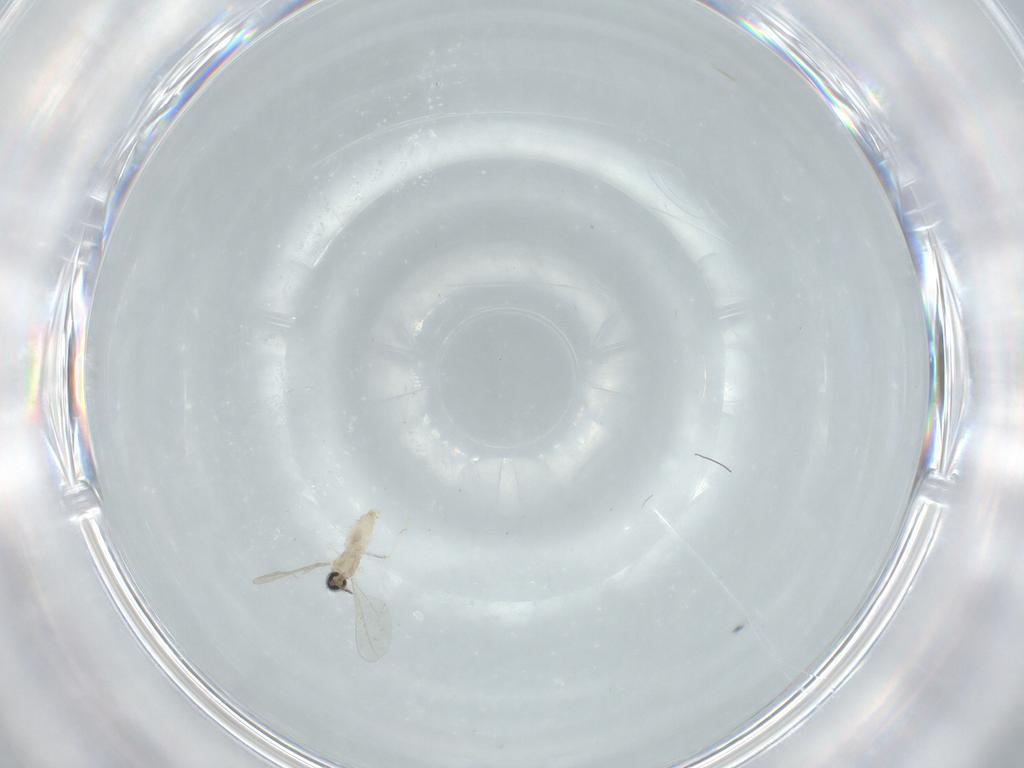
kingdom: Animalia
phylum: Arthropoda
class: Insecta
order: Diptera
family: Cecidomyiidae
